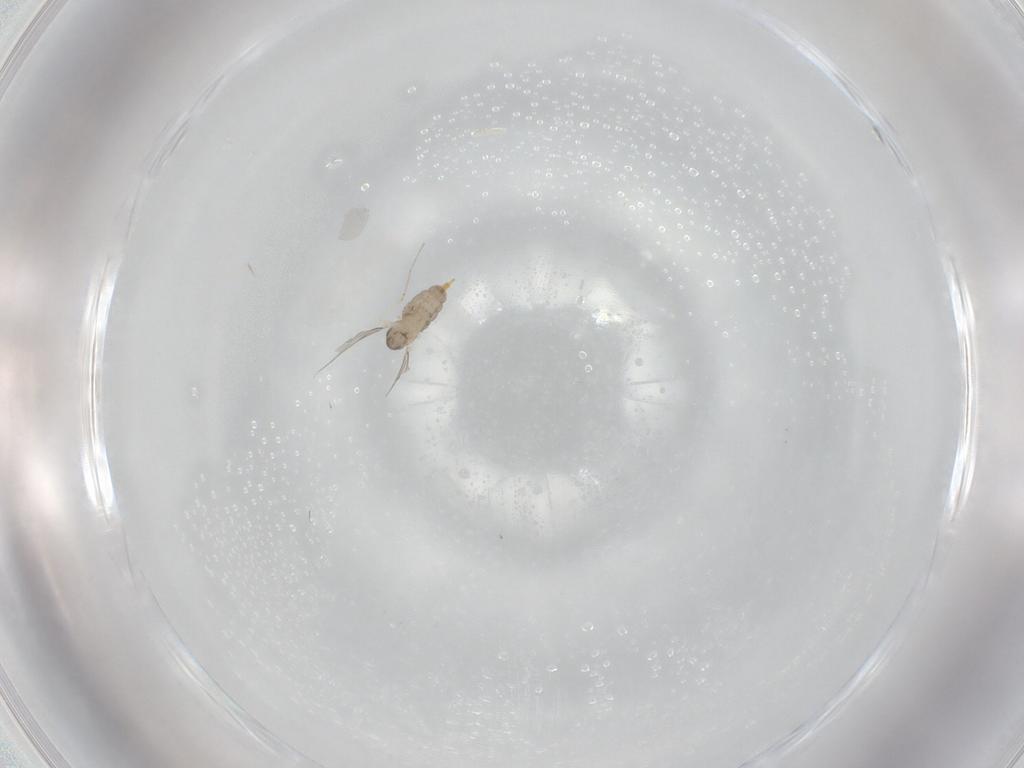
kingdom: Animalia
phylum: Arthropoda
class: Insecta
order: Diptera
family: Cecidomyiidae
